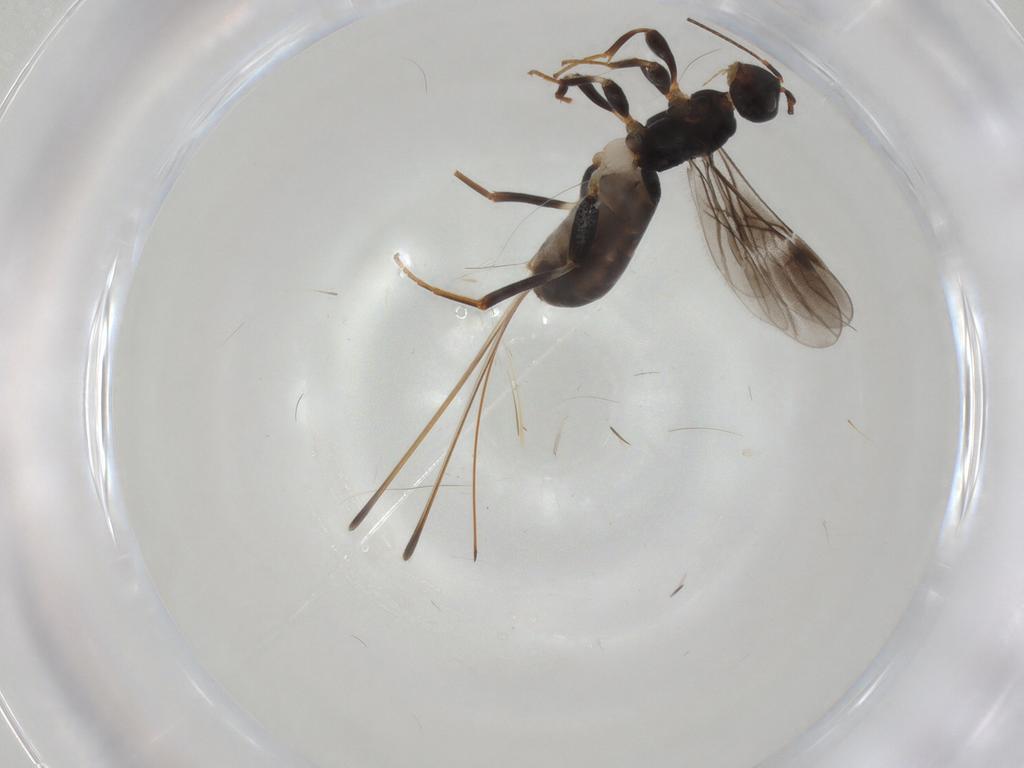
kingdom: Animalia
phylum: Arthropoda
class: Insecta
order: Hymenoptera
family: Braconidae
